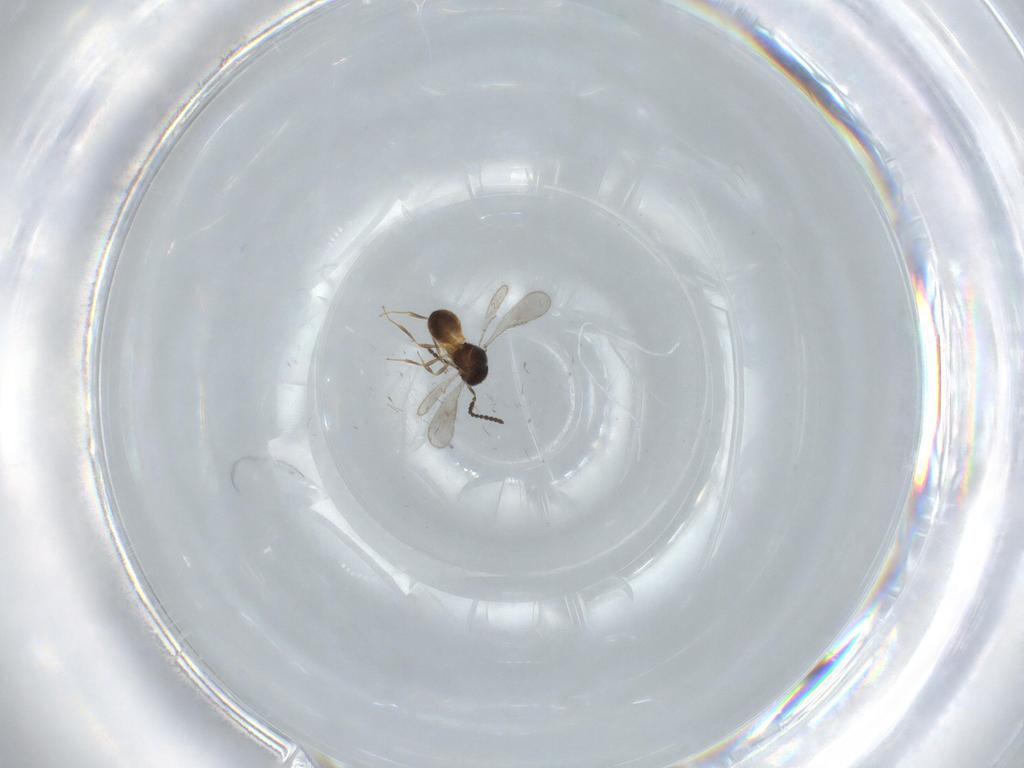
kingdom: Animalia
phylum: Arthropoda
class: Insecta
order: Hymenoptera
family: Scelionidae
